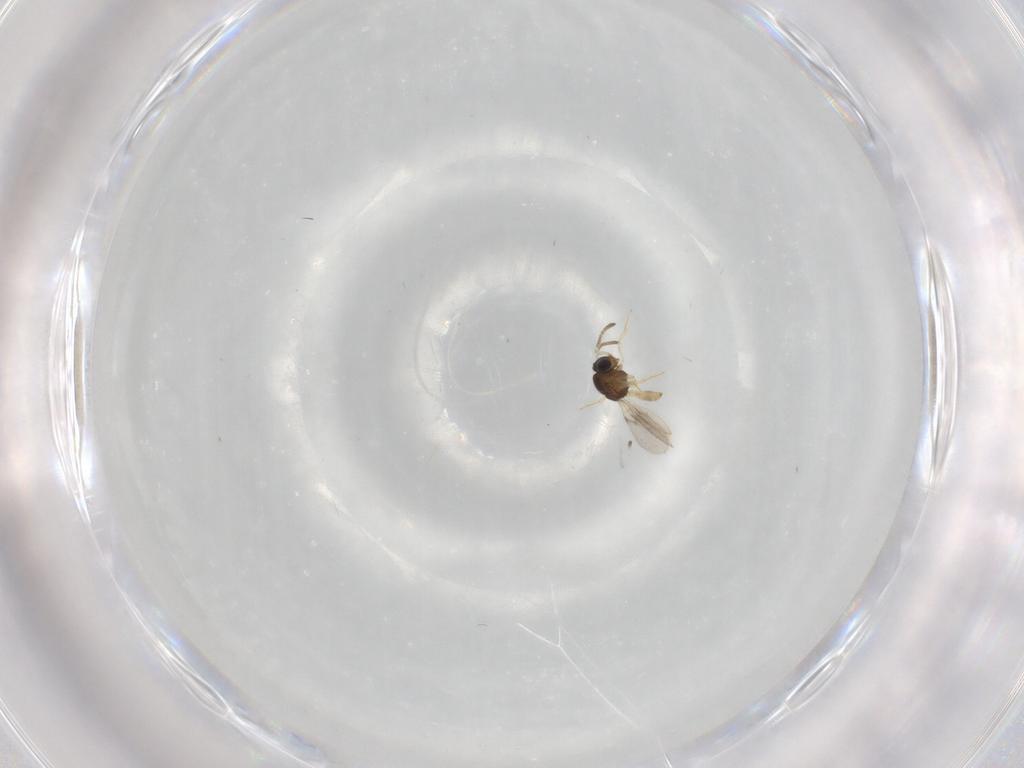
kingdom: Animalia
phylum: Arthropoda
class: Insecta
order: Hymenoptera
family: Scelionidae
